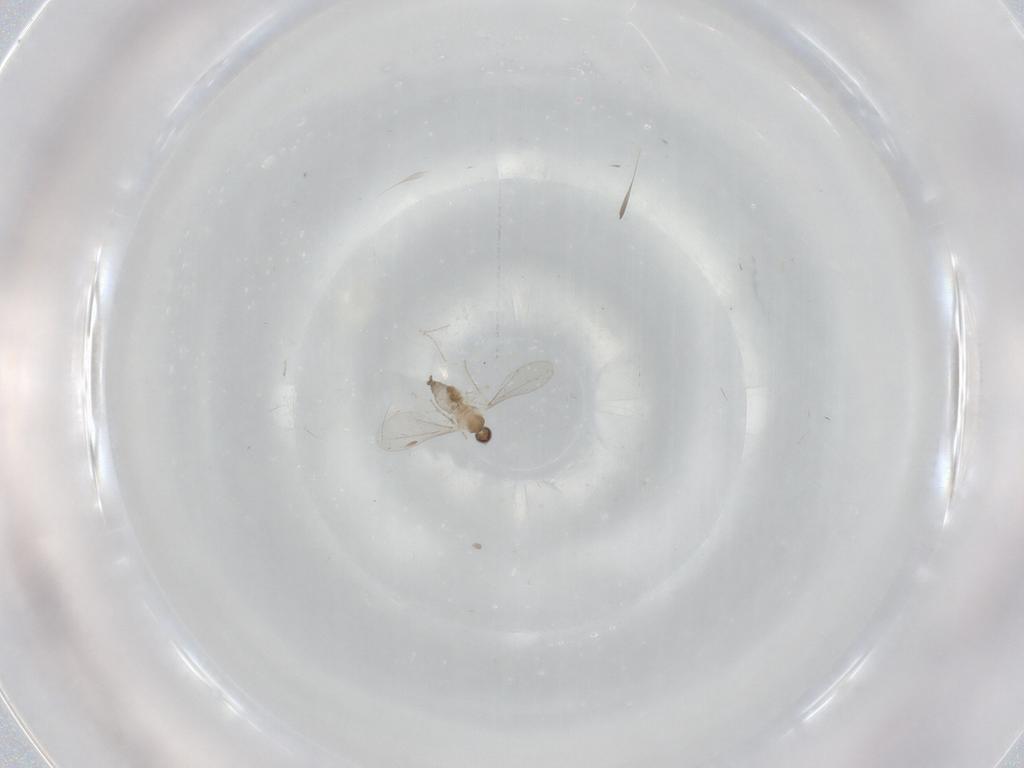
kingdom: Animalia
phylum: Arthropoda
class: Insecta
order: Diptera
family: Cecidomyiidae
